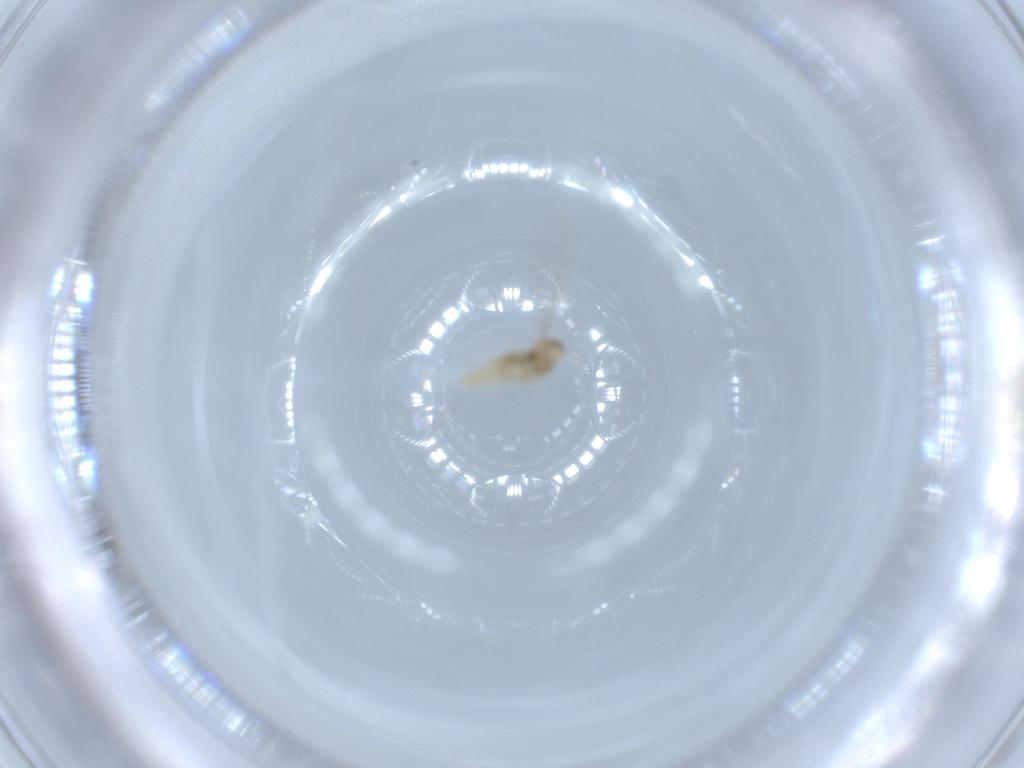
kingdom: Animalia
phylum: Arthropoda
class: Insecta
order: Diptera
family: Cecidomyiidae
